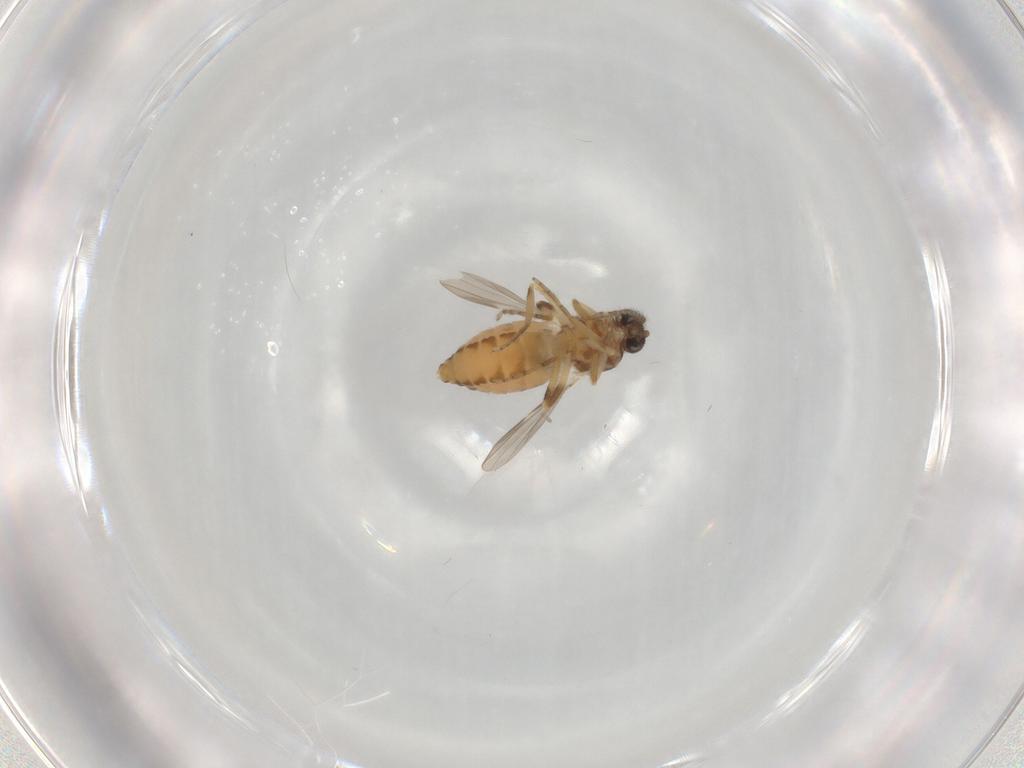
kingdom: Animalia
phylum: Arthropoda
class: Insecta
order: Diptera
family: Ceratopogonidae
